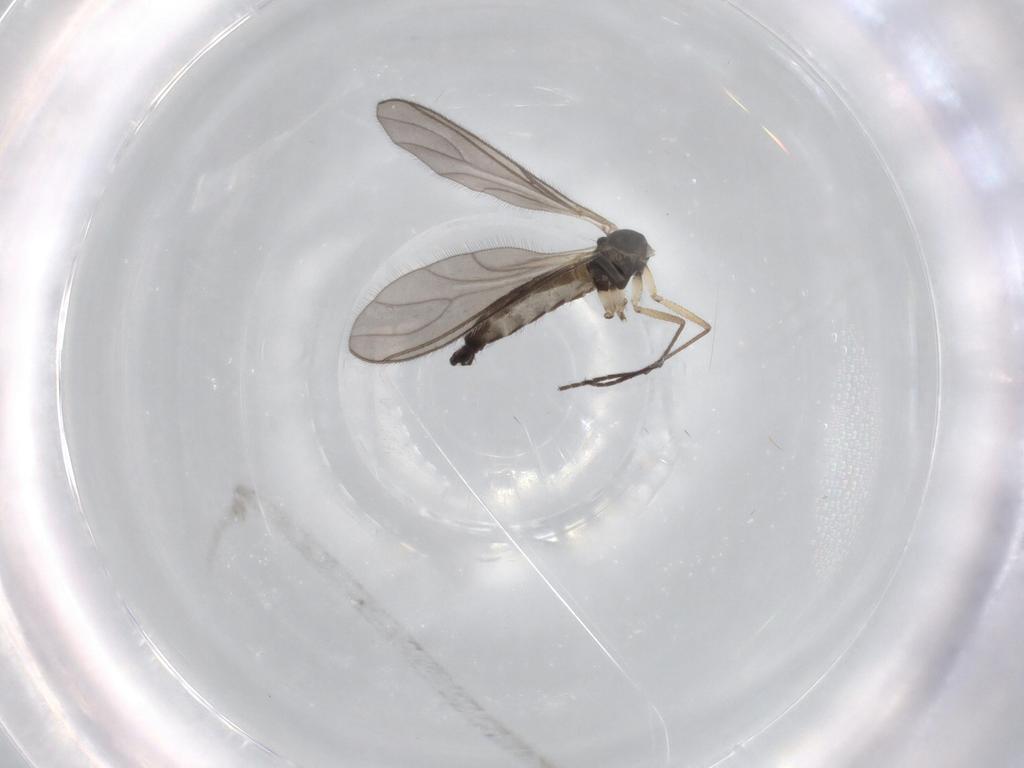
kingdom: Animalia
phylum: Arthropoda
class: Insecta
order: Diptera
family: Sciaridae
